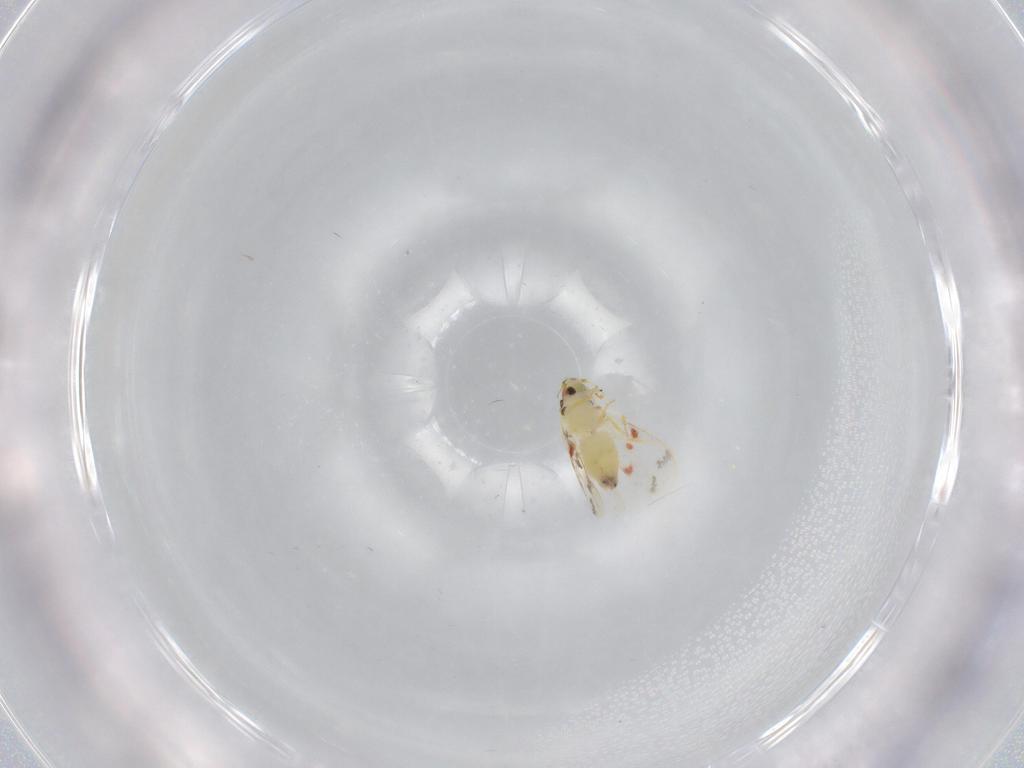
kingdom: Animalia
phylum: Arthropoda
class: Insecta
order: Hemiptera
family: Aleyrodidae
